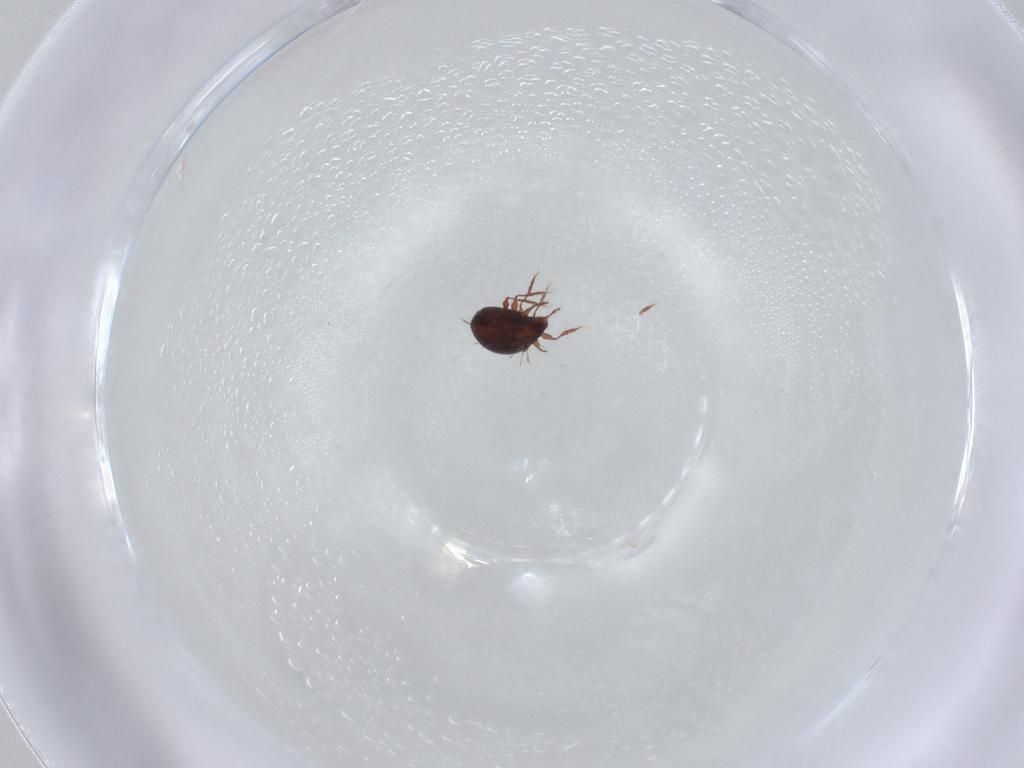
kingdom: Animalia
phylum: Arthropoda
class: Arachnida
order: Sarcoptiformes
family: Caloppiidae
